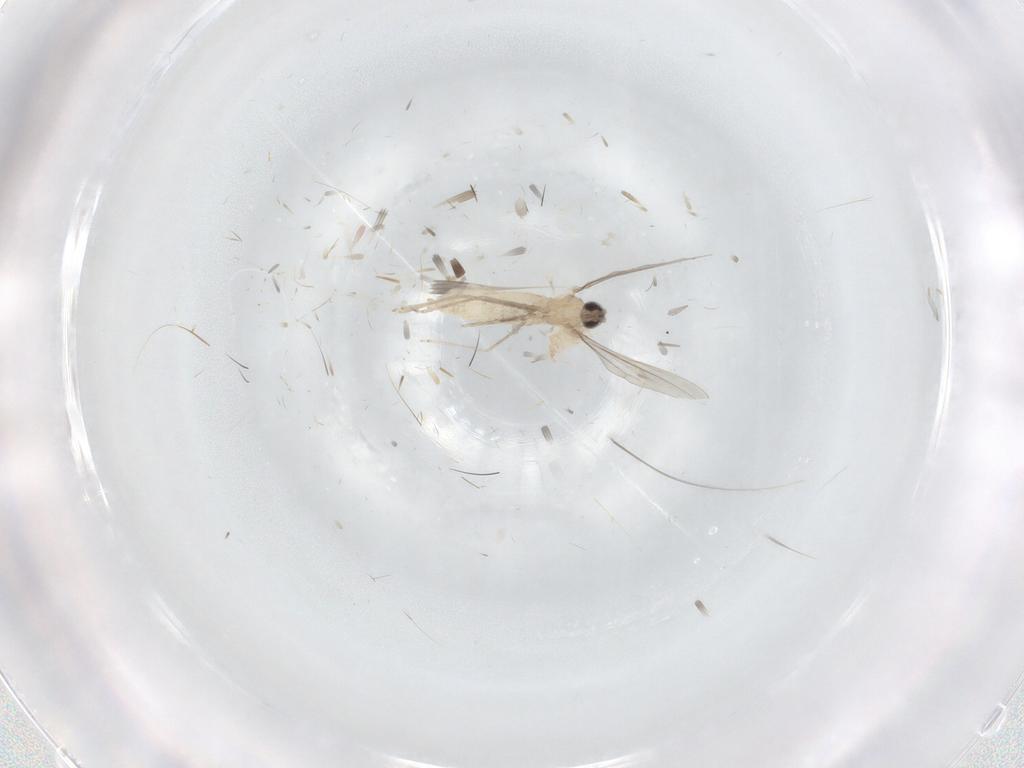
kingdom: Animalia
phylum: Arthropoda
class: Insecta
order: Diptera
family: Cecidomyiidae
